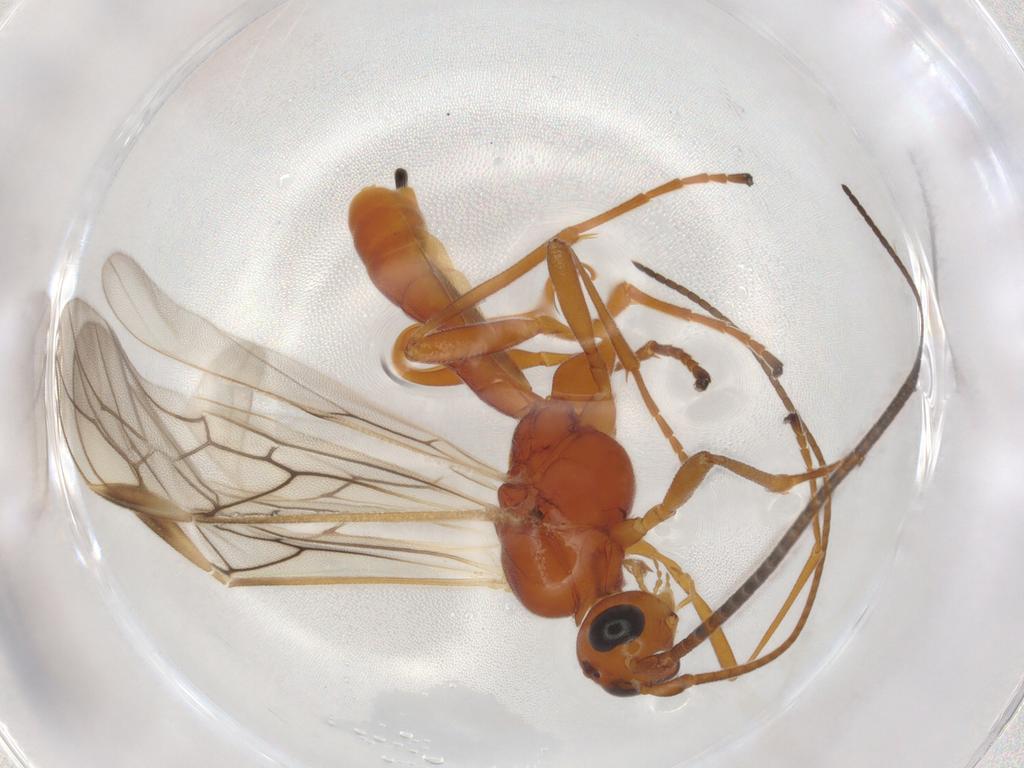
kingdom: Animalia
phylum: Arthropoda
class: Insecta
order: Hymenoptera
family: Braconidae
